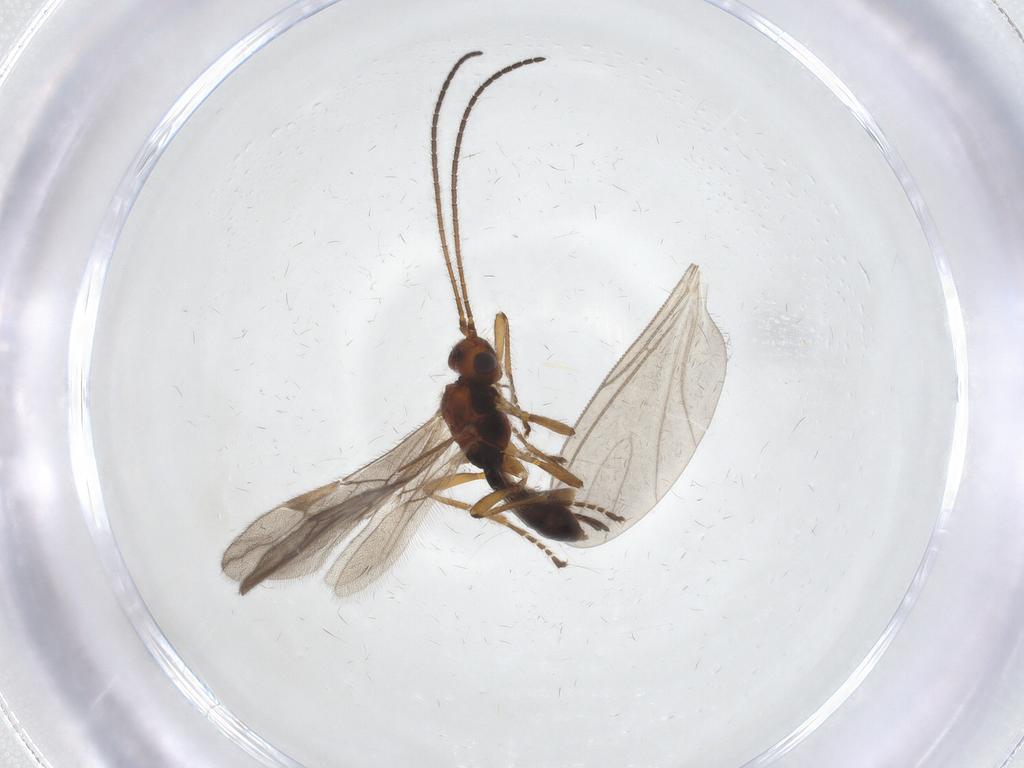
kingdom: Animalia
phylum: Arthropoda
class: Insecta
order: Hymenoptera
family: Braconidae
